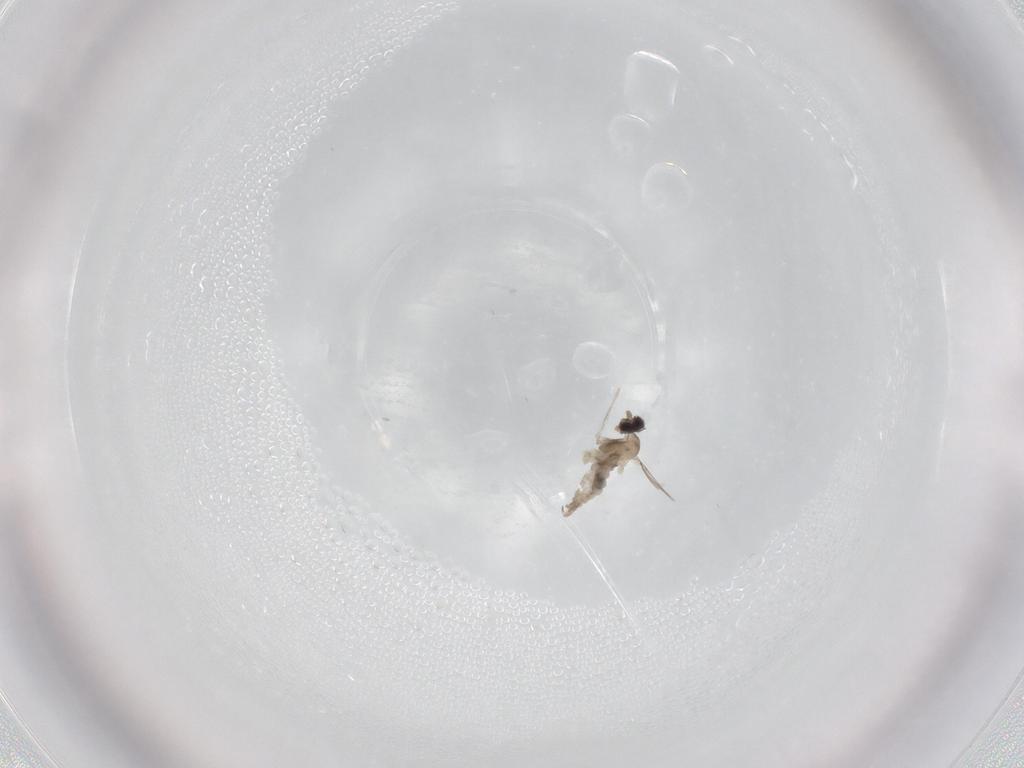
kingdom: Animalia
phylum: Arthropoda
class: Insecta
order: Diptera
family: Cecidomyiidae
